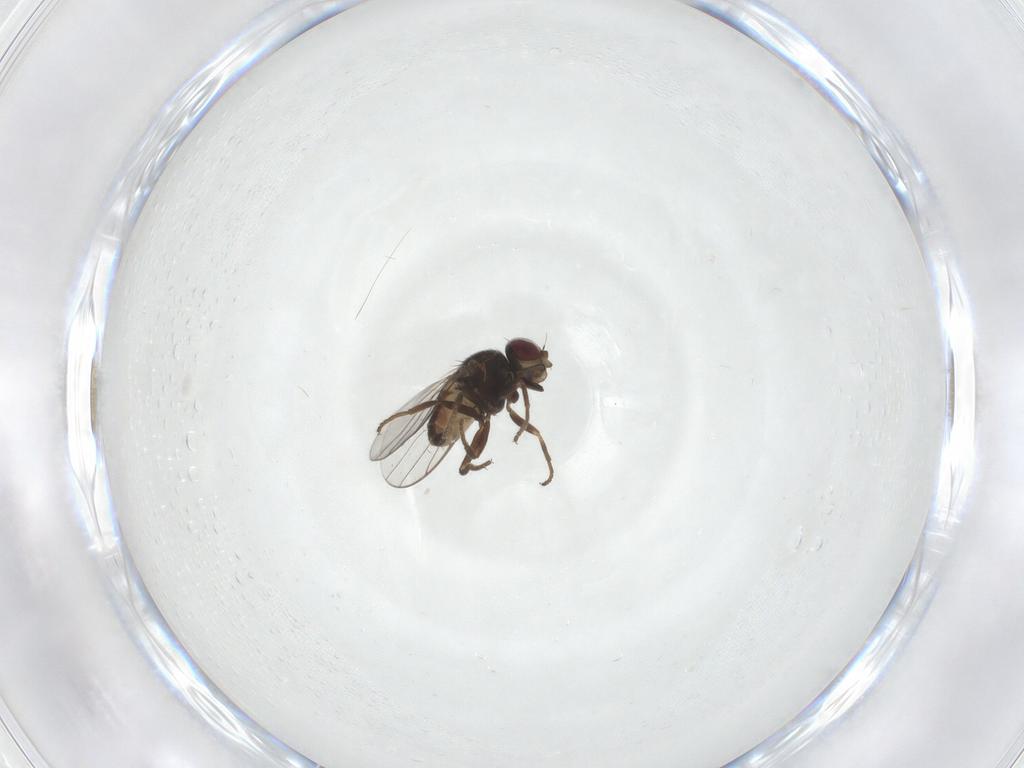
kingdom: Animalia
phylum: Arthropoda
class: Insecta
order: Diptera
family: Chloropidae
